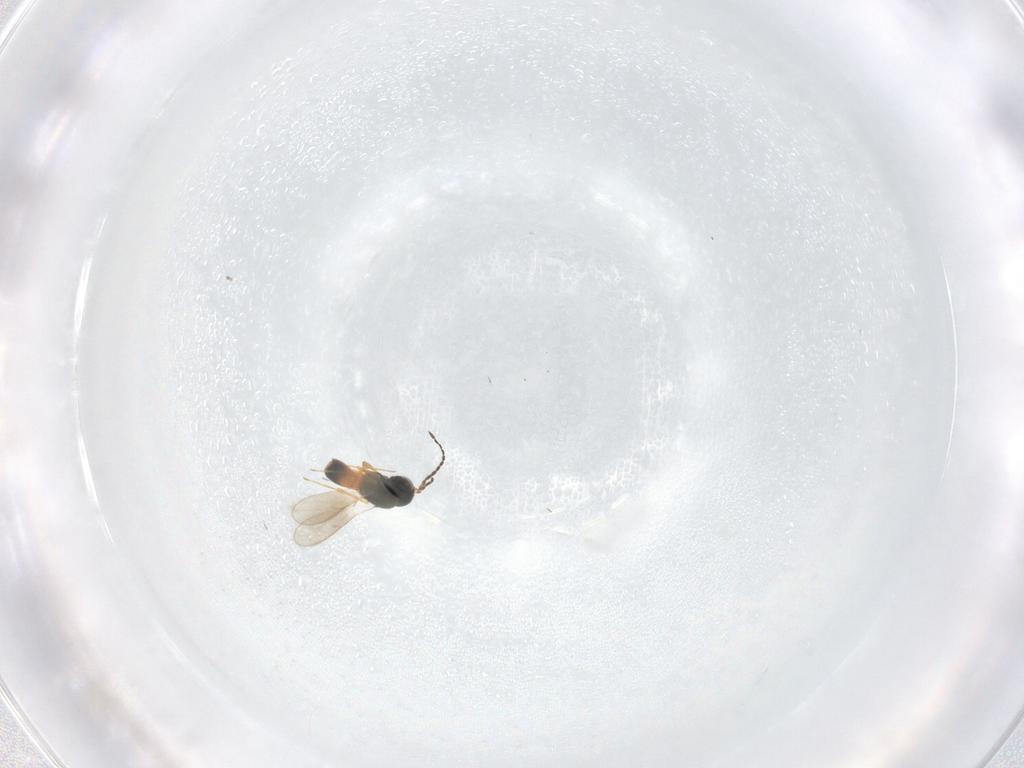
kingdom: Animalia
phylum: Arthropoda
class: Insecta
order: Hymenoptera
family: Scelionidae
